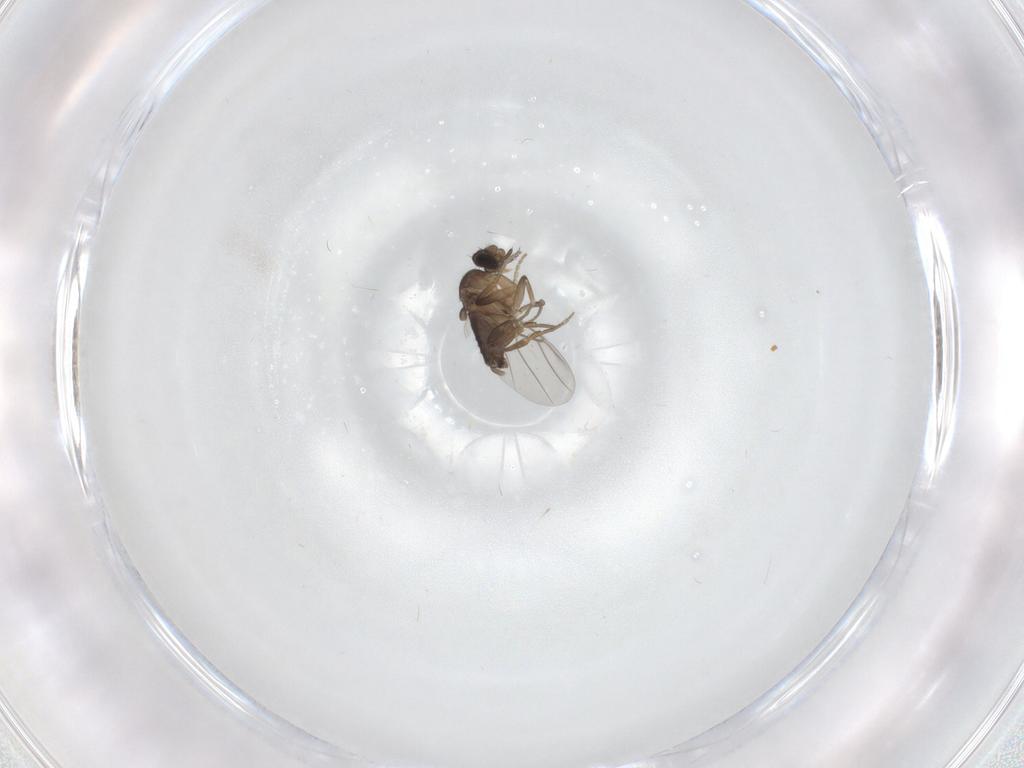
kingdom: Animalia
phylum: Arthropoda
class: Insecta
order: Diptera
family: Phoridae
